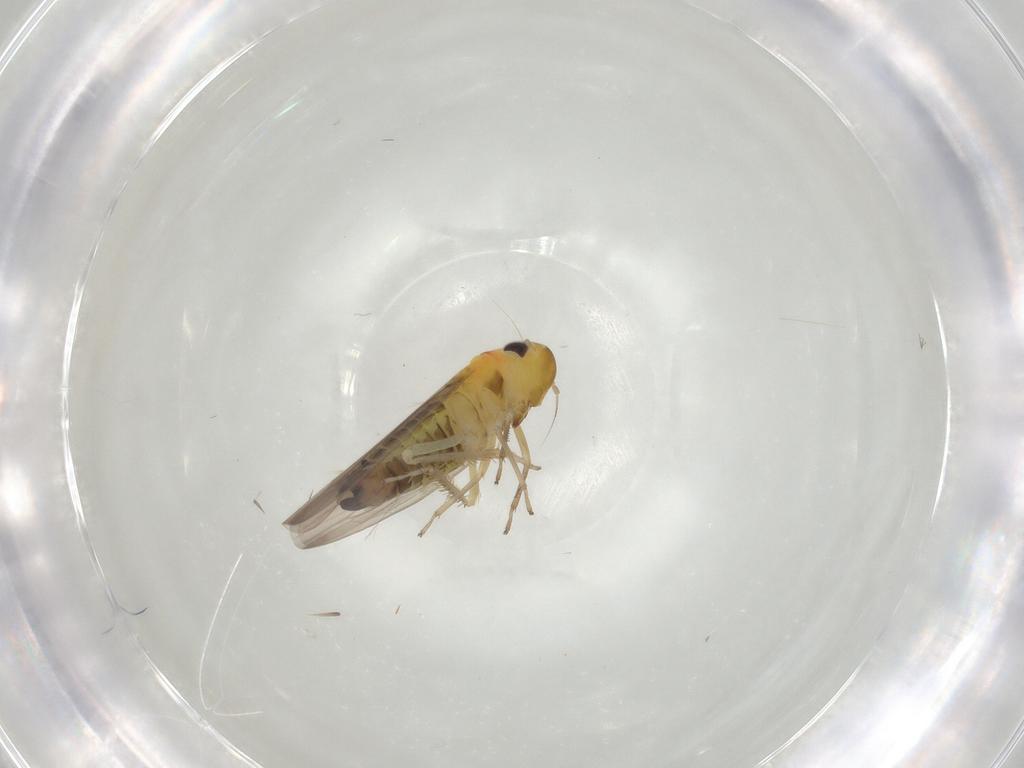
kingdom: Animalia
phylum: Arthropoda
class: Insecta
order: Hemiptera
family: Cicadellidae
